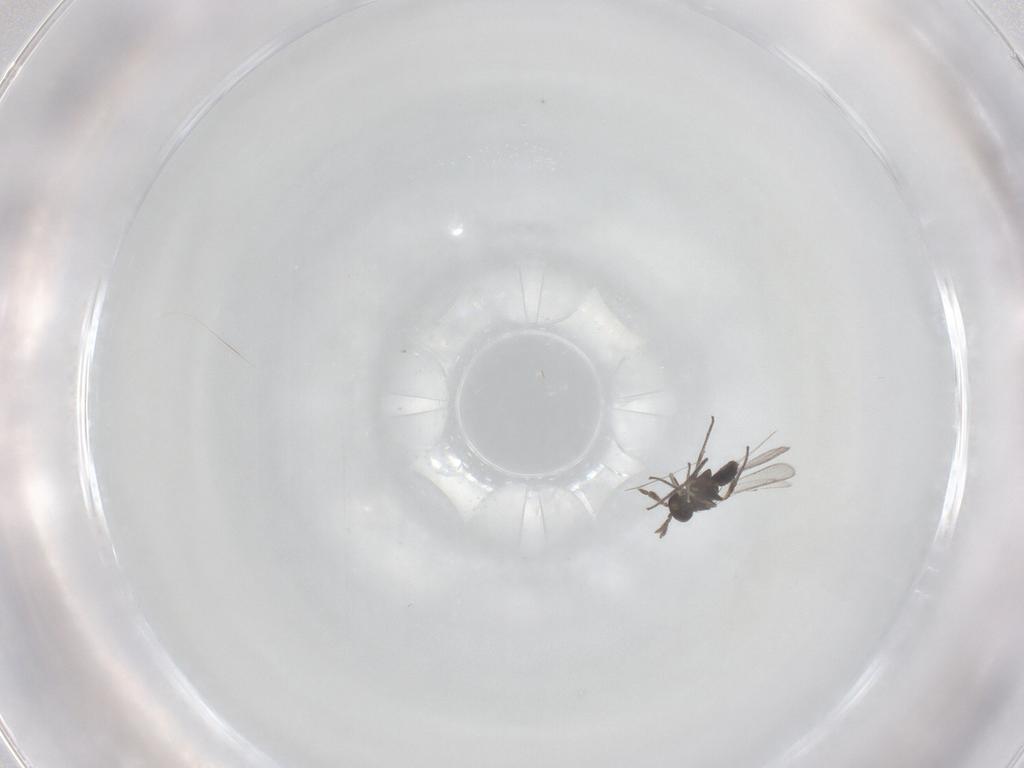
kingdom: Animalia
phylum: Arthropoda
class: Insecta
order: Hymenoptera
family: Eulophidae
